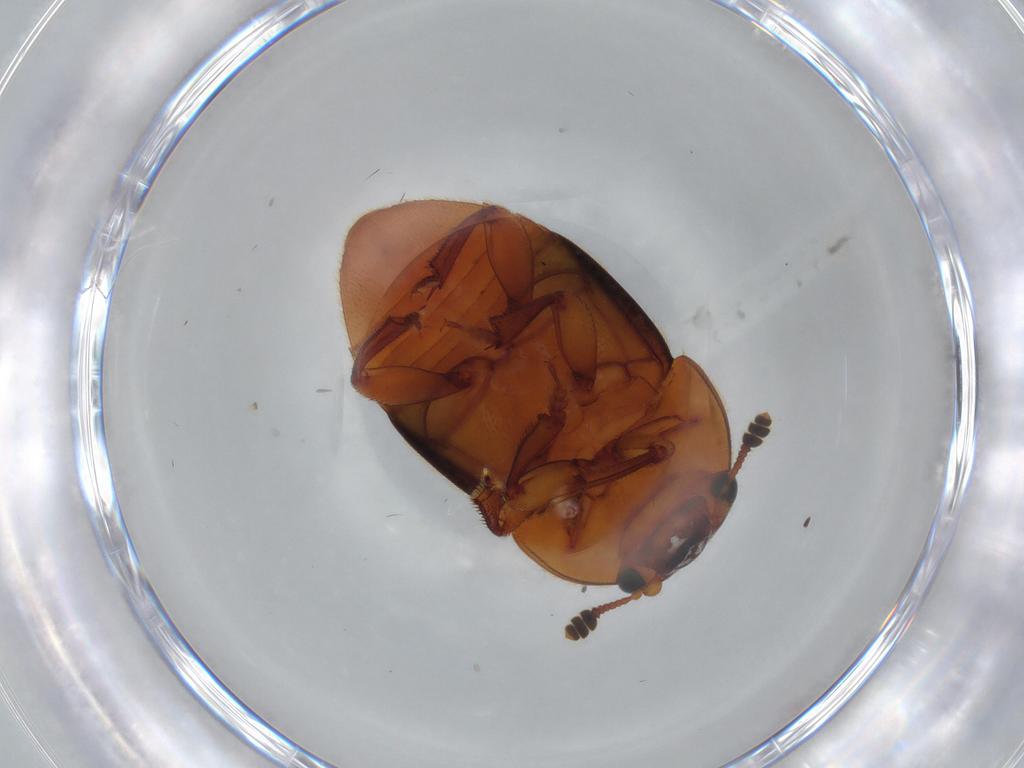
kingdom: Animalia
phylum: Arthropoda
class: Insecta
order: Coleoptera
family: Nitidulidae
